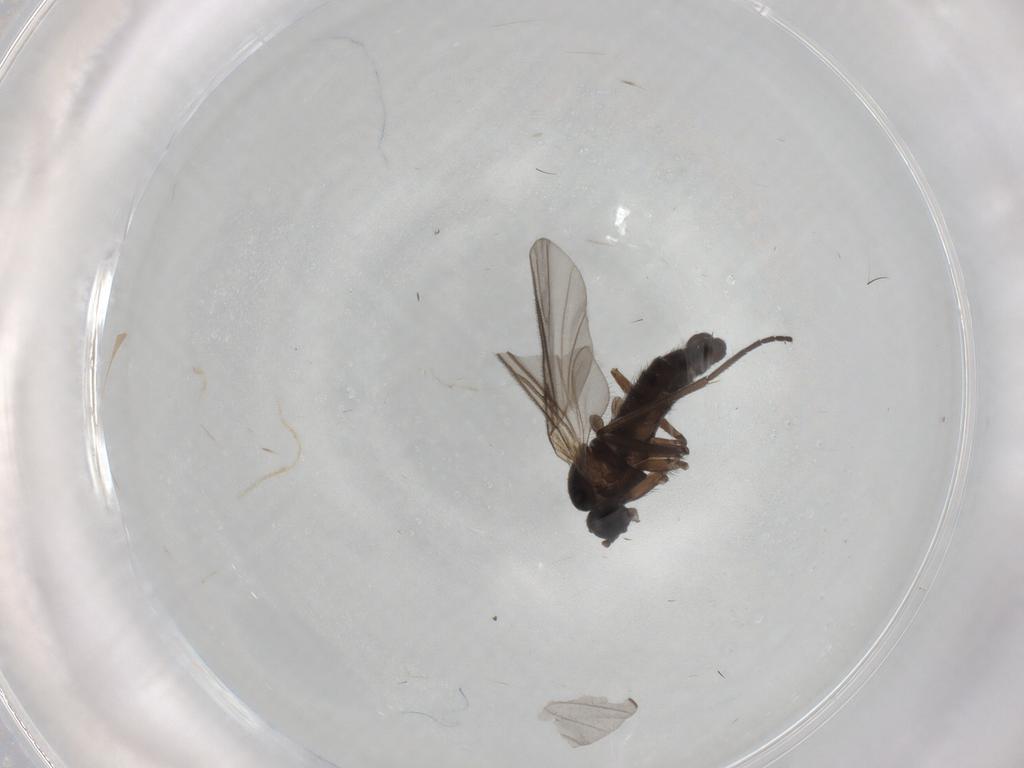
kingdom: Animalia
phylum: Arthropoda
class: Insecta
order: Diptera
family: Sciaridae
